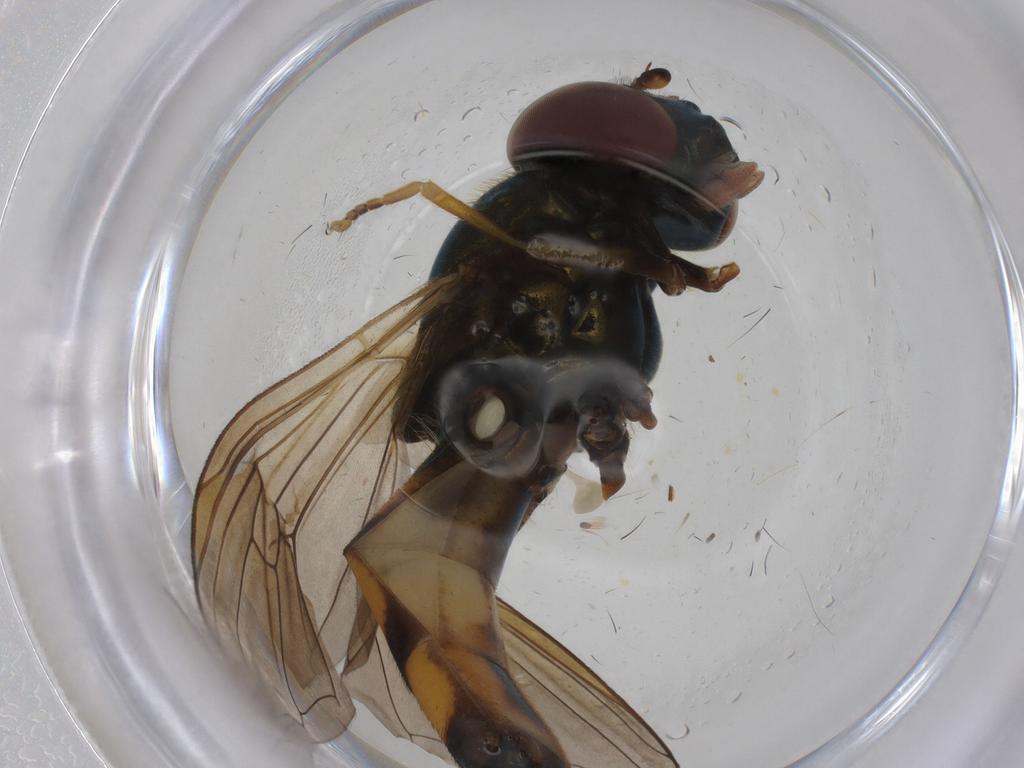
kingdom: Animalia
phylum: Arthropoda
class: Insecta
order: Diptera
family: Syrphidae
